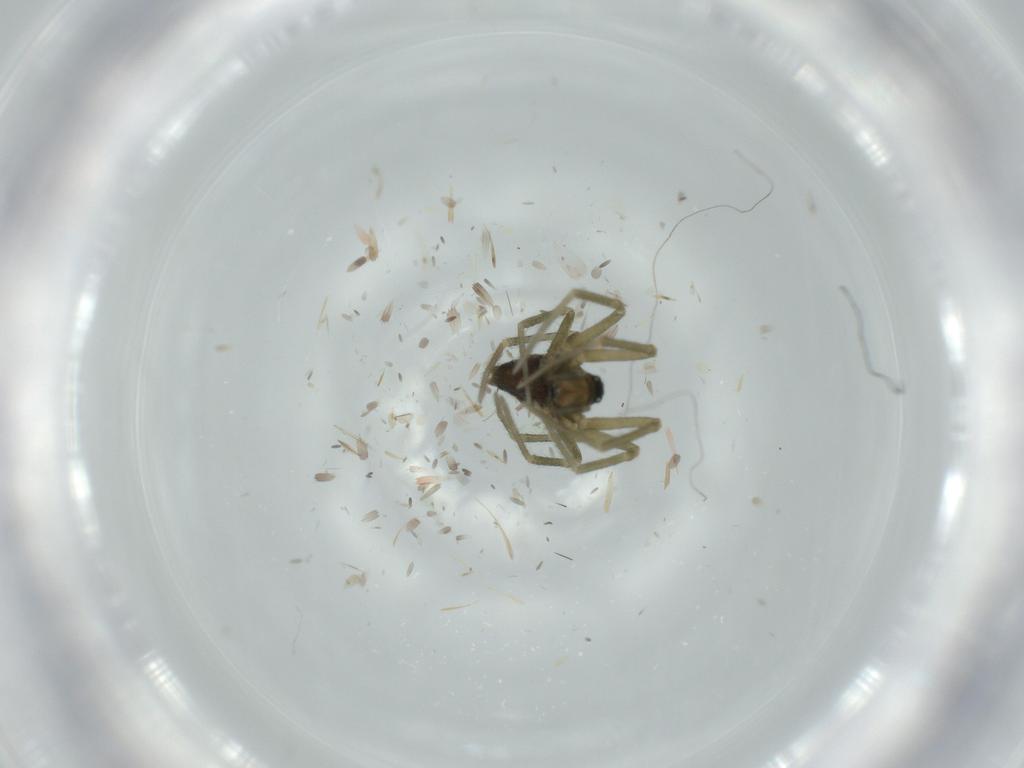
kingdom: Animalia
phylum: Arthropoda
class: Arachnida
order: Araneae
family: Linyphiidae
